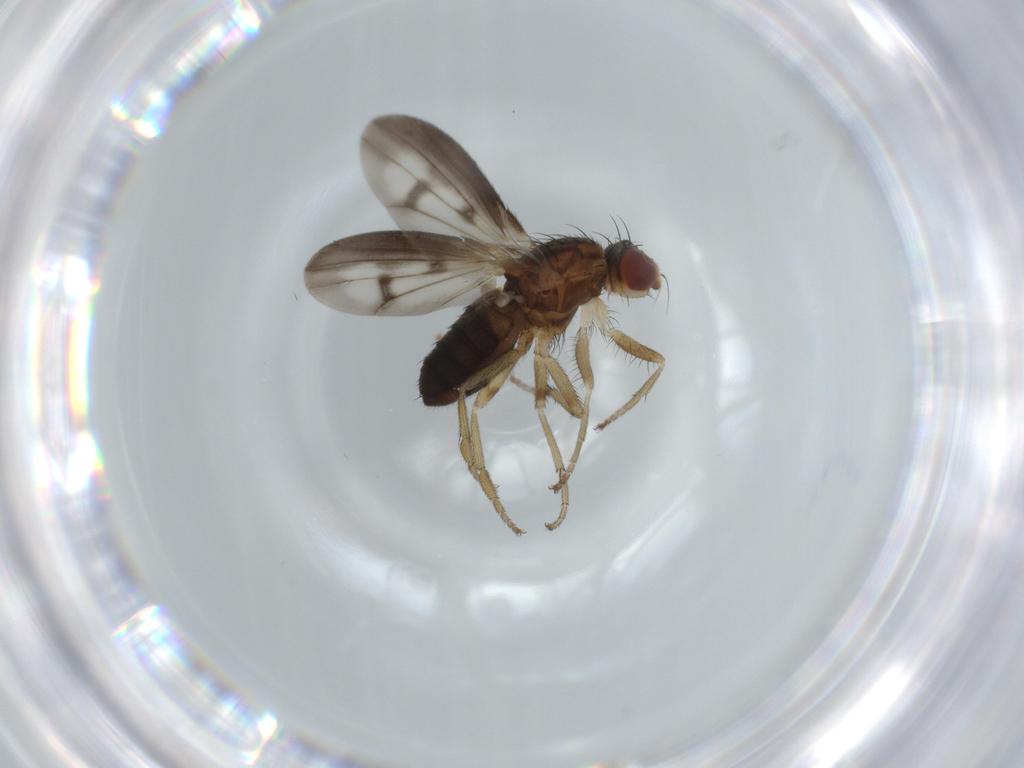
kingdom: Animalia
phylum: Arthropoda
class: Insecta
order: Diptera
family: Heleomyzidae
